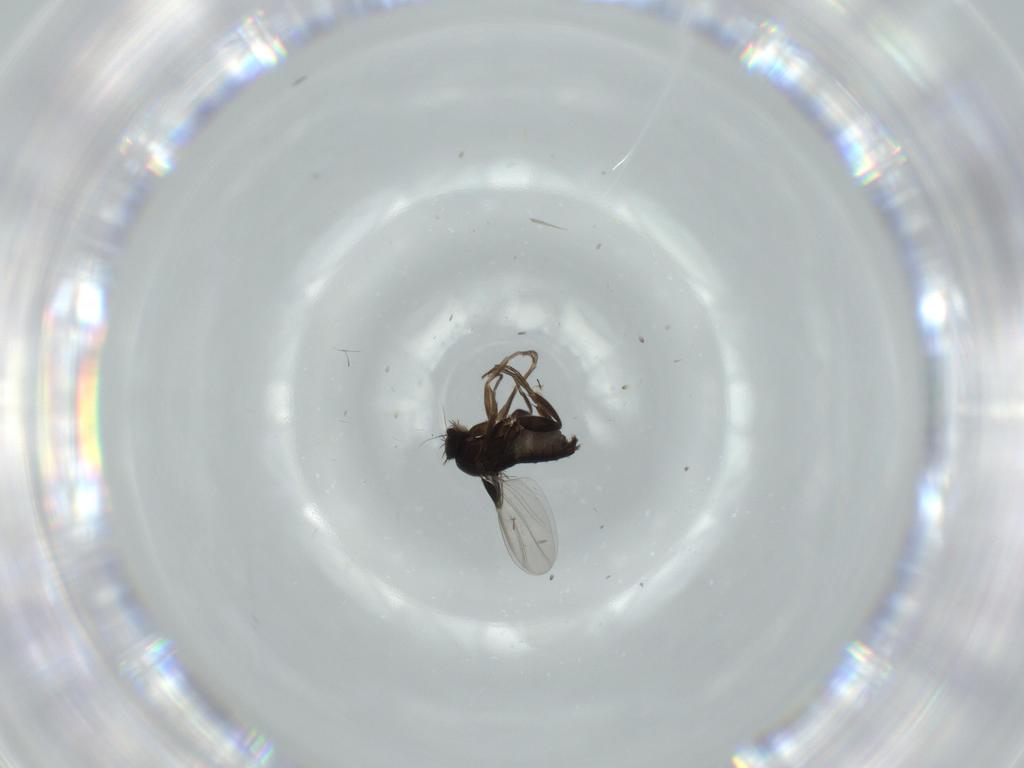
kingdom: Animalia
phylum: Arthropoda
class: Insecta
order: Diptera
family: Phoridae
